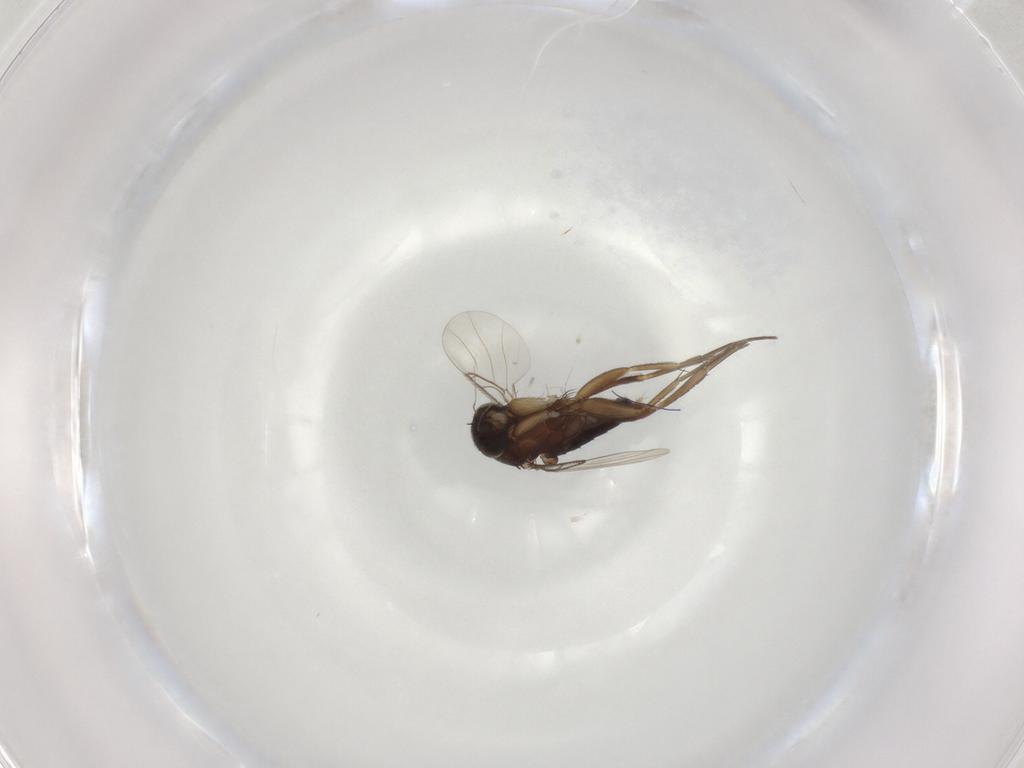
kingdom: Animalia
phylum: Arthropoda
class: Insecta
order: Diptera
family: Phoridae
